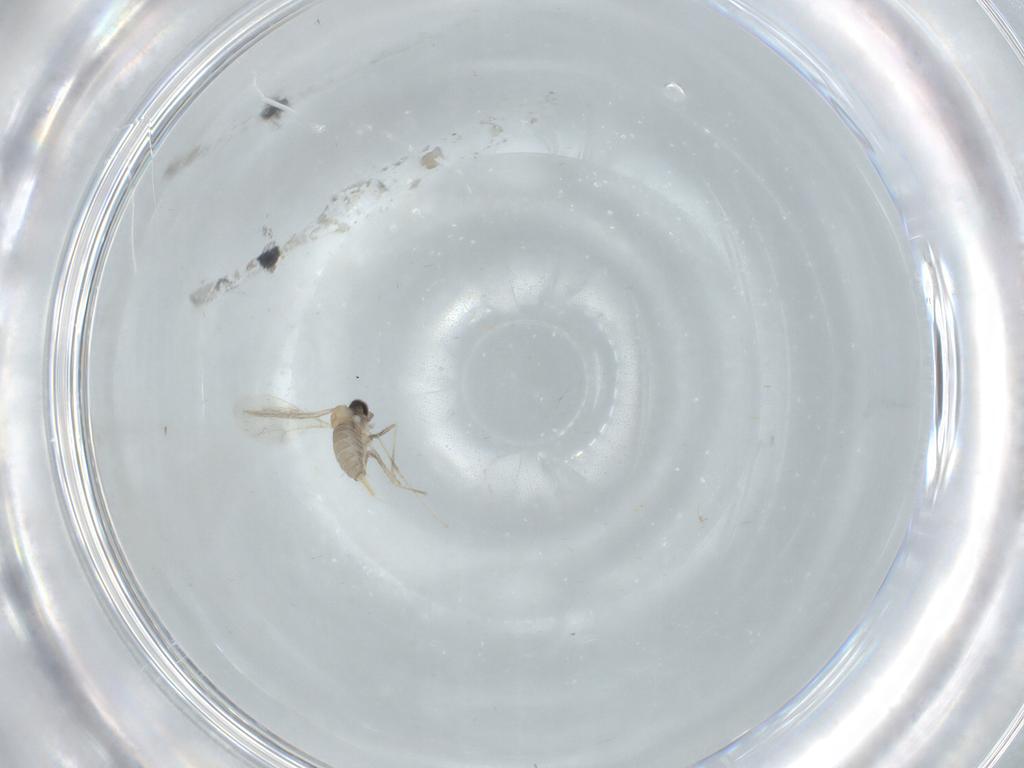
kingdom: Animalia
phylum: Arthropoda
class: Insecta
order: Diptera
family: Cecidomyiidae
